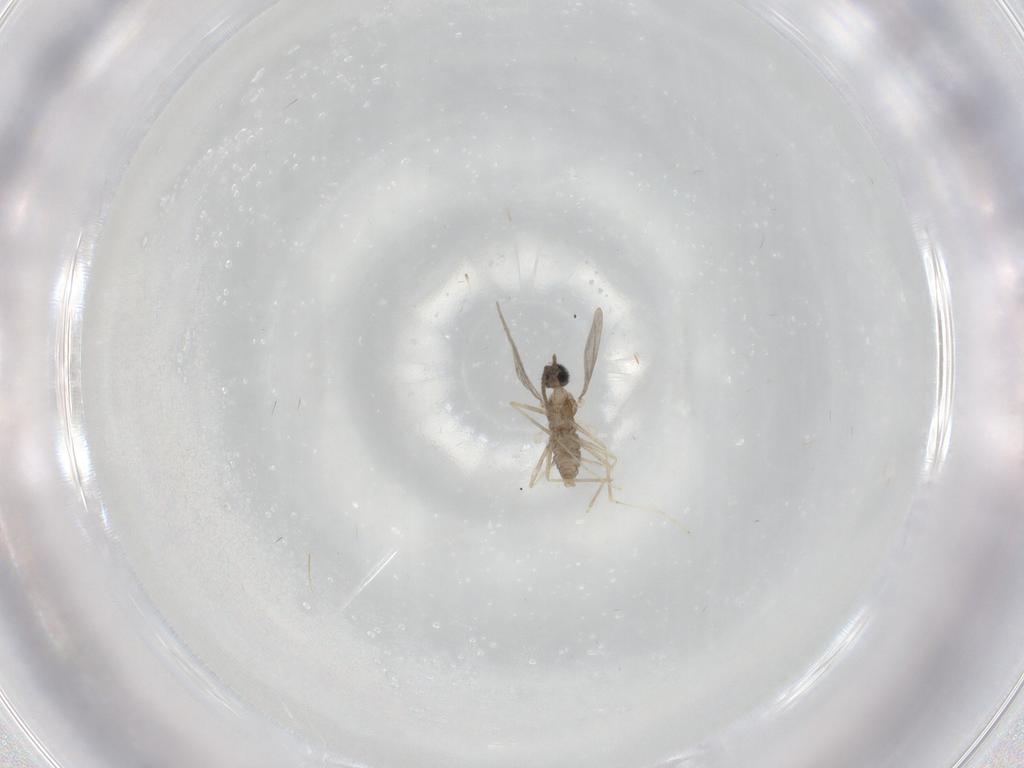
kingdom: Animalia
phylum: Arthropoda
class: Insecta
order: Diptera
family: Cecidomyiidae
